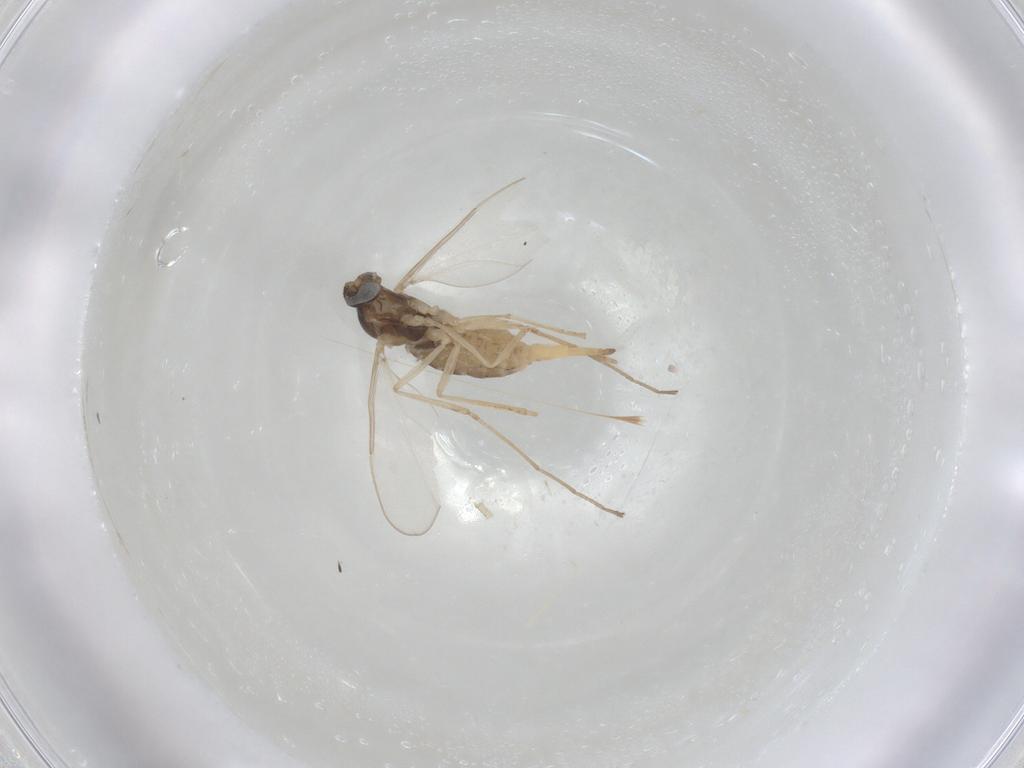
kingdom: Animalia
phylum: Arthropoda
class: Insecta
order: Diptera
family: Cecidomyiidae
